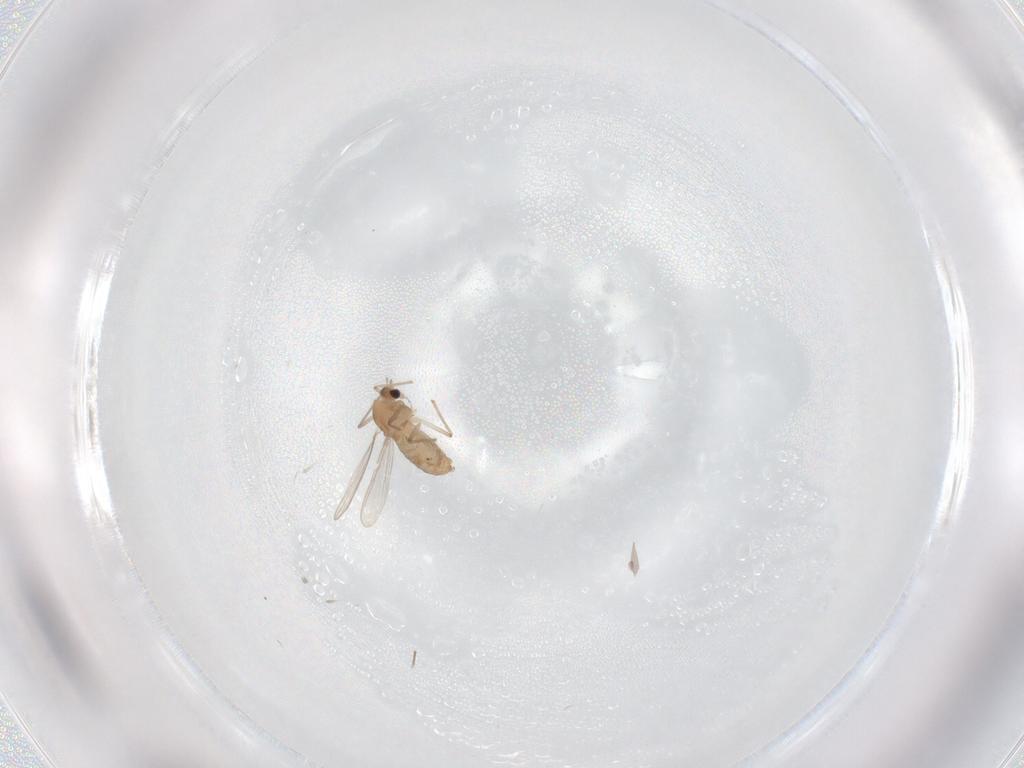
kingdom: Animalia
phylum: Arthropoda
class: Insecta
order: Diptera
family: Chironomidae
